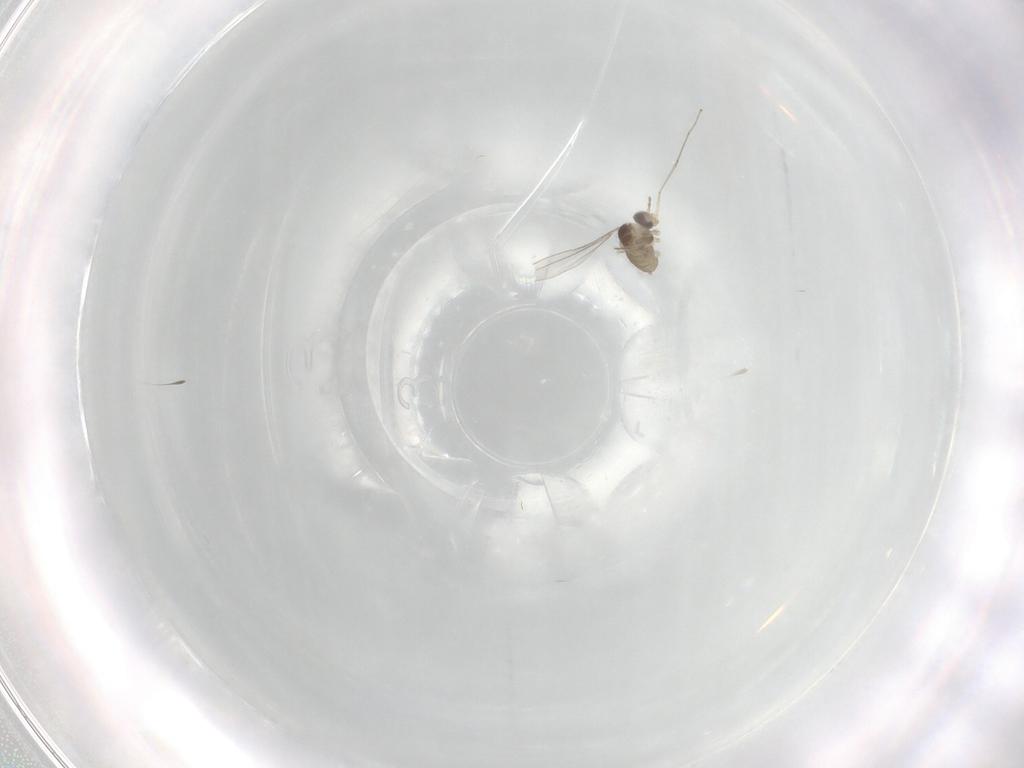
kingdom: Animalia
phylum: Arthropoda
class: Insecta
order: Diptera
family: Cecidomyiidae
